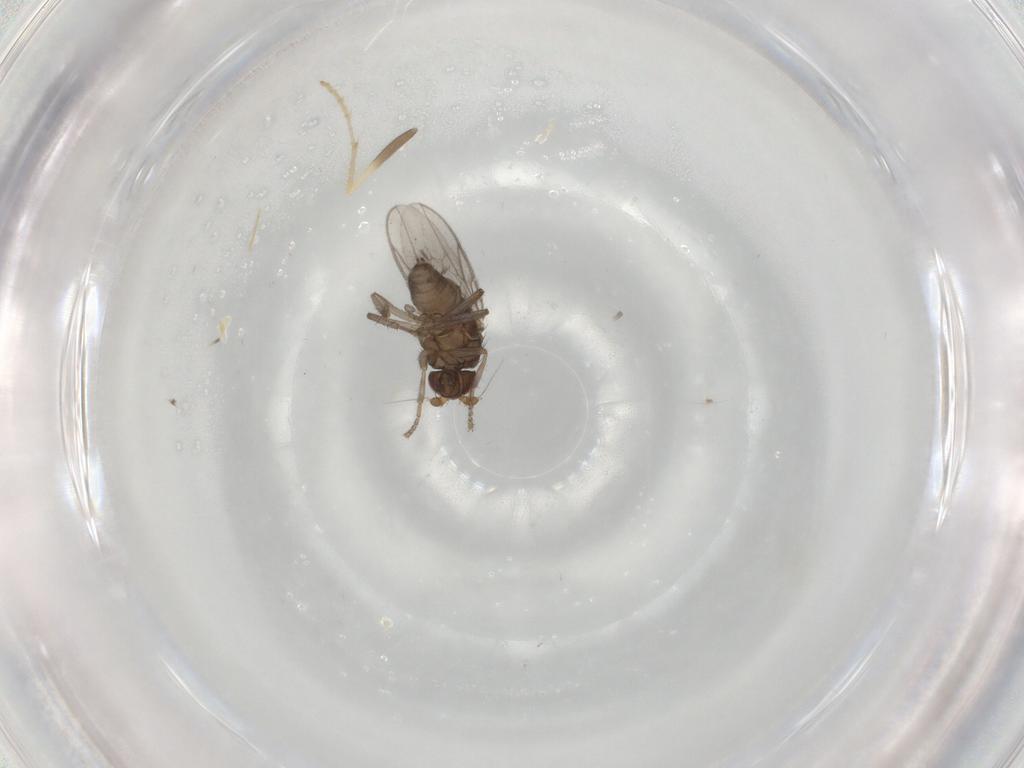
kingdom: Animalia
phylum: Arthropoda
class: Insecta
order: Diptera
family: Sphaeroceridae
